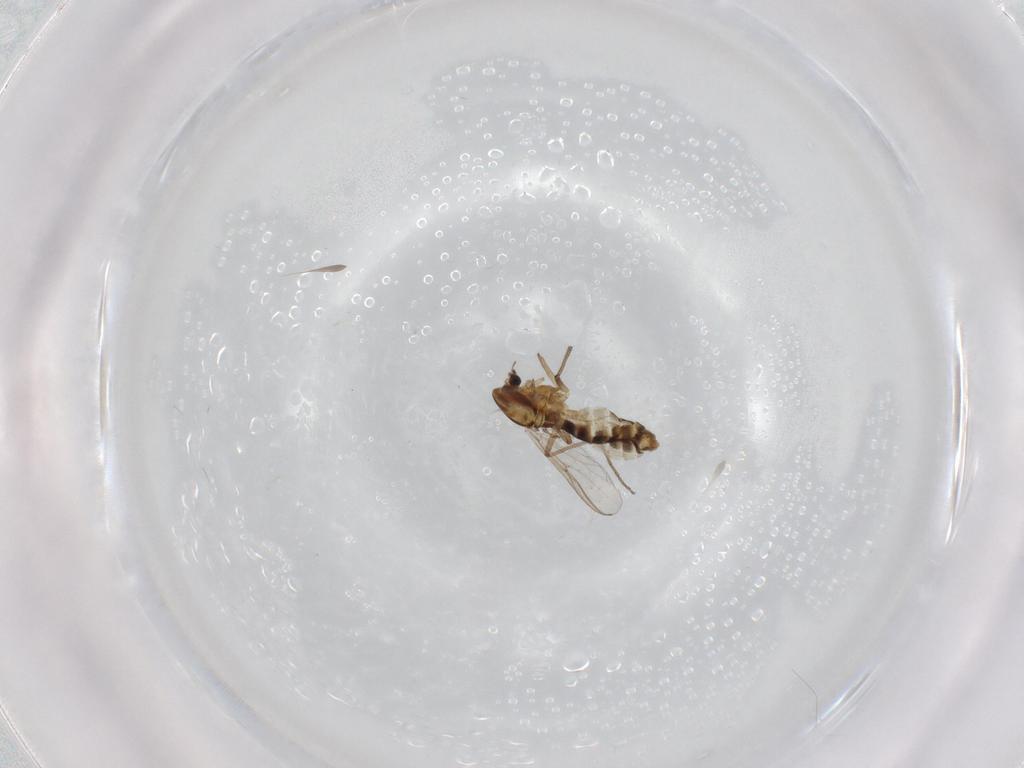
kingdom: Animalia
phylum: Arthropoda
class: Insecta
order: Diptera
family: Chironomidae
